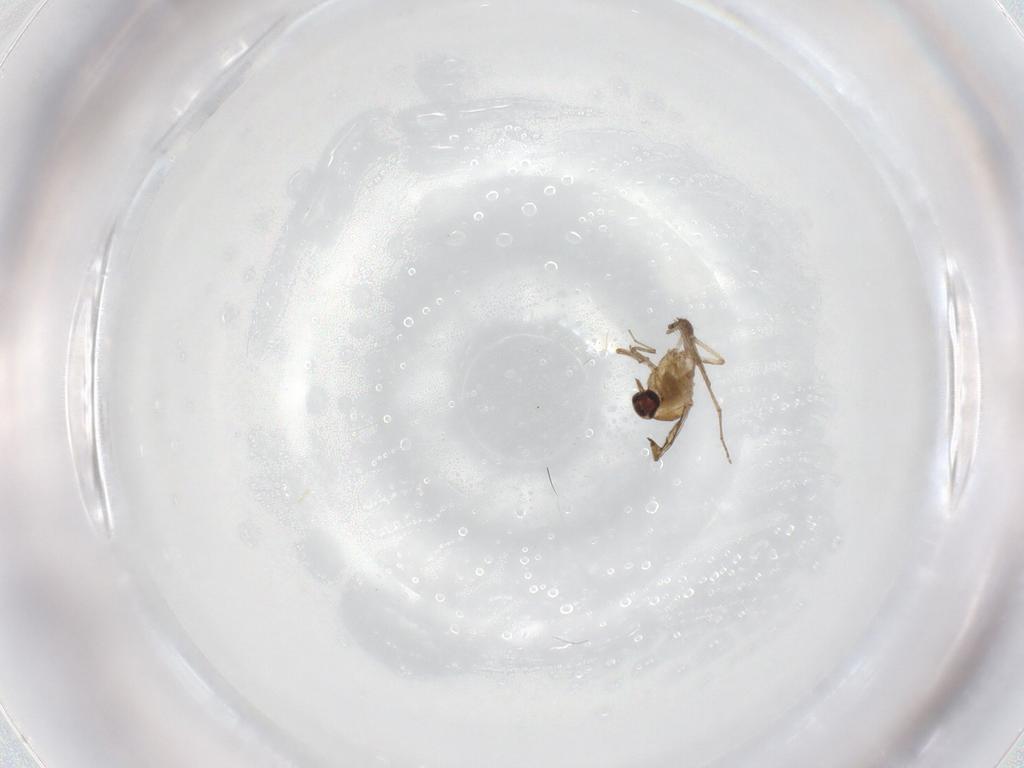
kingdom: Animalia
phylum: Arthropoda
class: Insecta
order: Diptera
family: Ceratopogonidae
